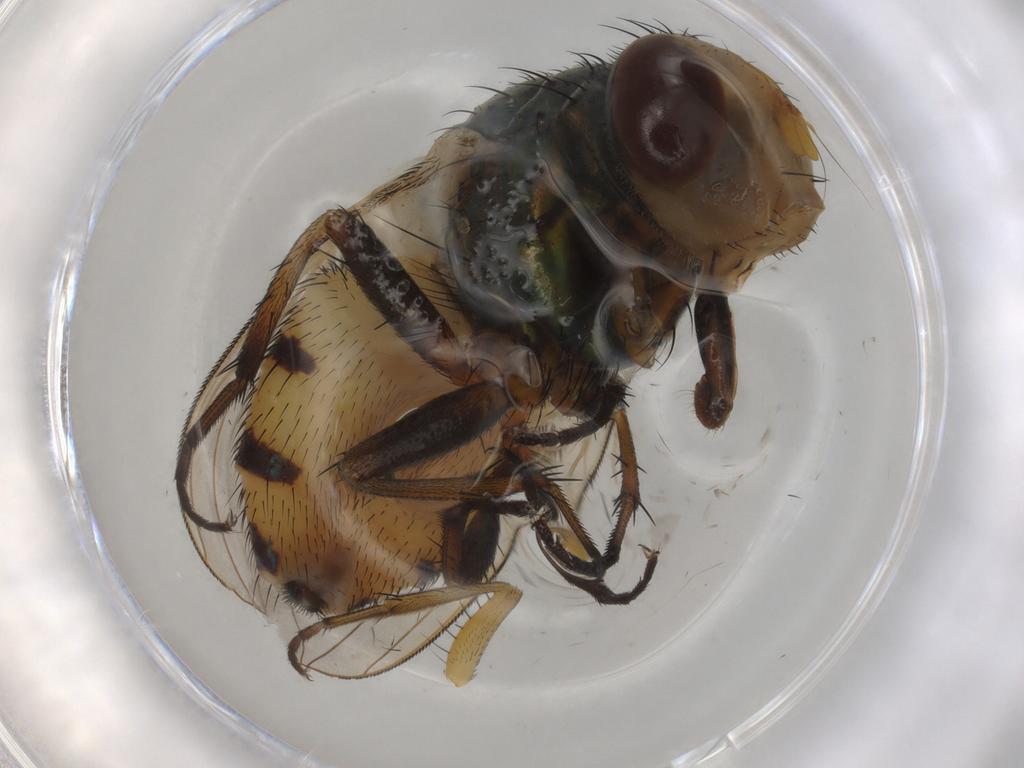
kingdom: Animalia
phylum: Arthropoda
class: Insecta
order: Diptera
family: Calliphoridae
